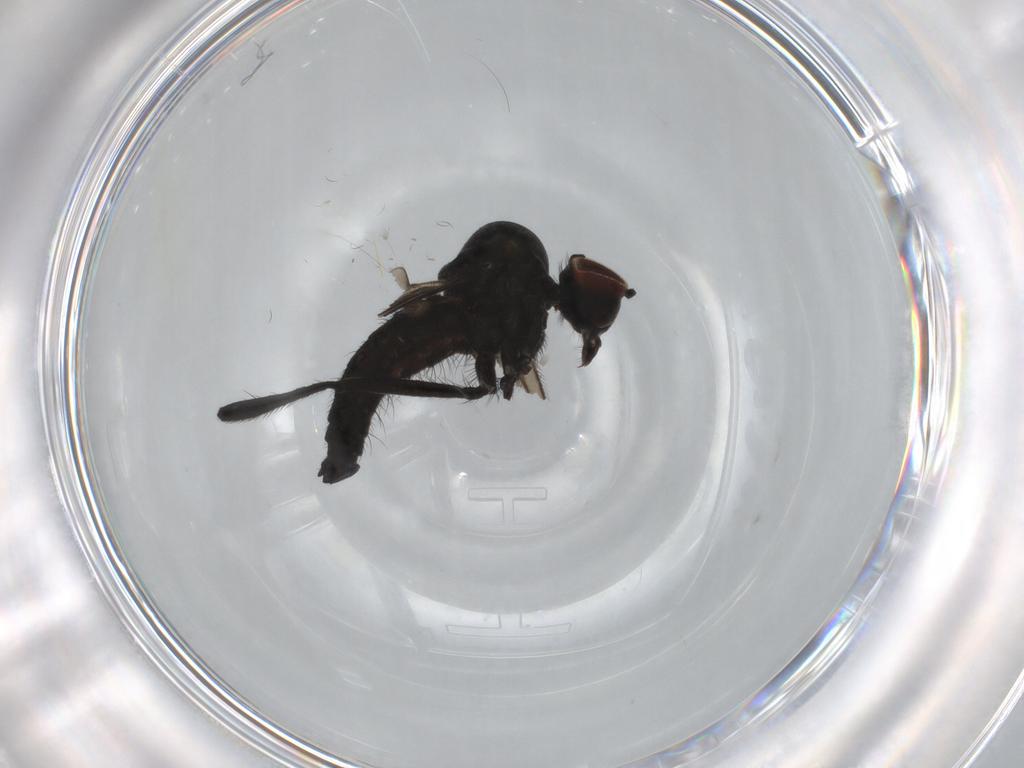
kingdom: Animalia
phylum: Arthropoda
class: Insecta
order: Diptera
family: Hybotidae
